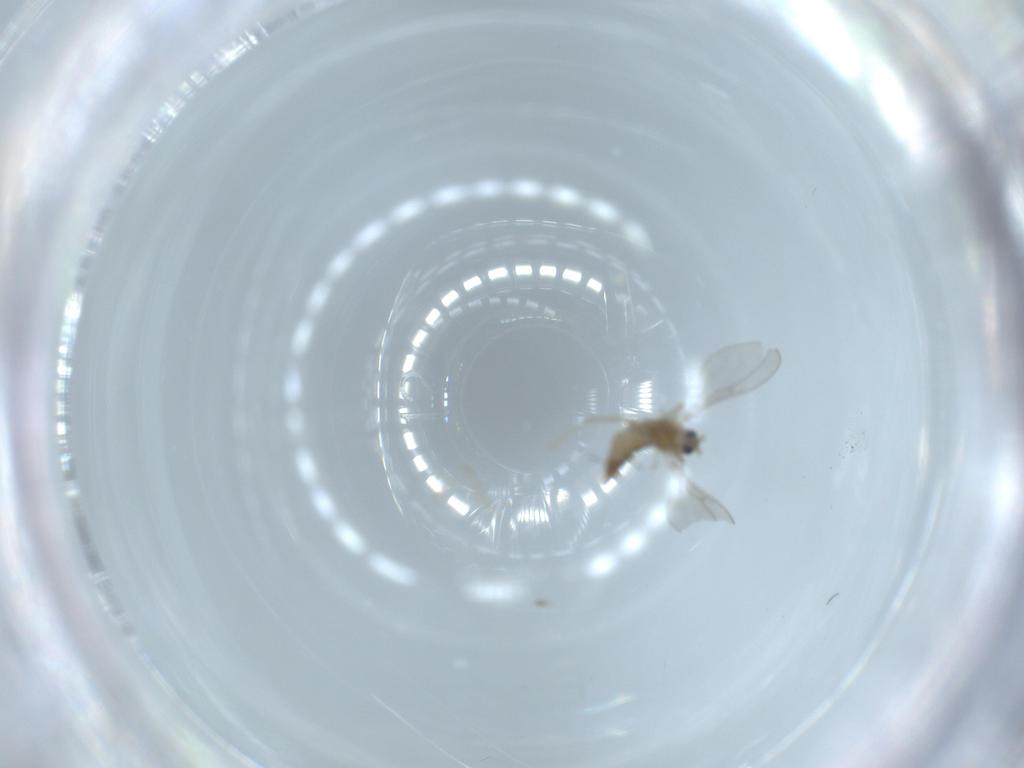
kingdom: Animalia
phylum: Arthropoda
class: Insecta
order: Diptera
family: Cecidomyiidae
